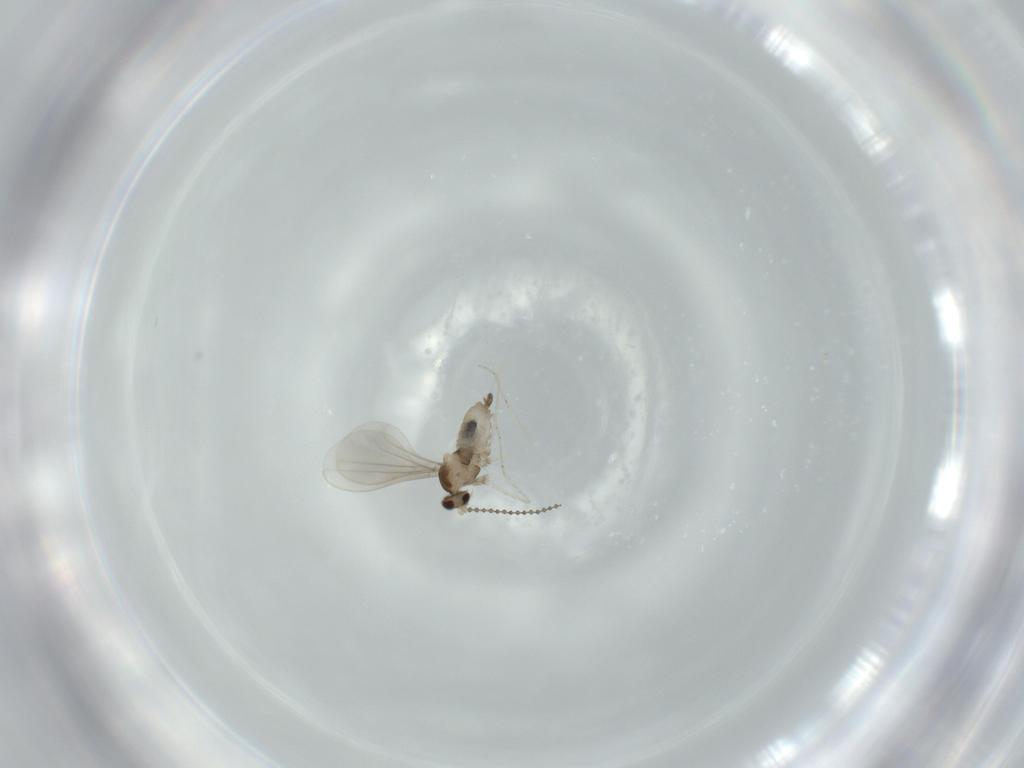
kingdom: Animalia
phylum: Arthropoda
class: Insecta
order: Diptera
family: Cecidomyiidae
